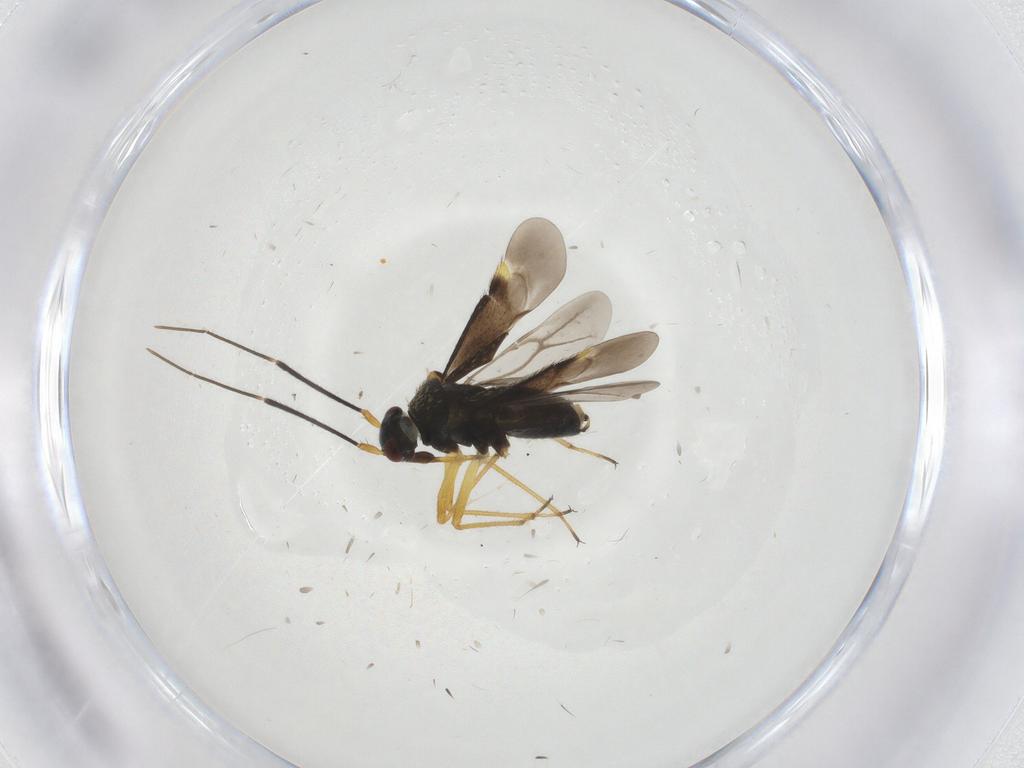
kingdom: Animalia
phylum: Arthropoda
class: Insecta
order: Hemiptera
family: Miridae
